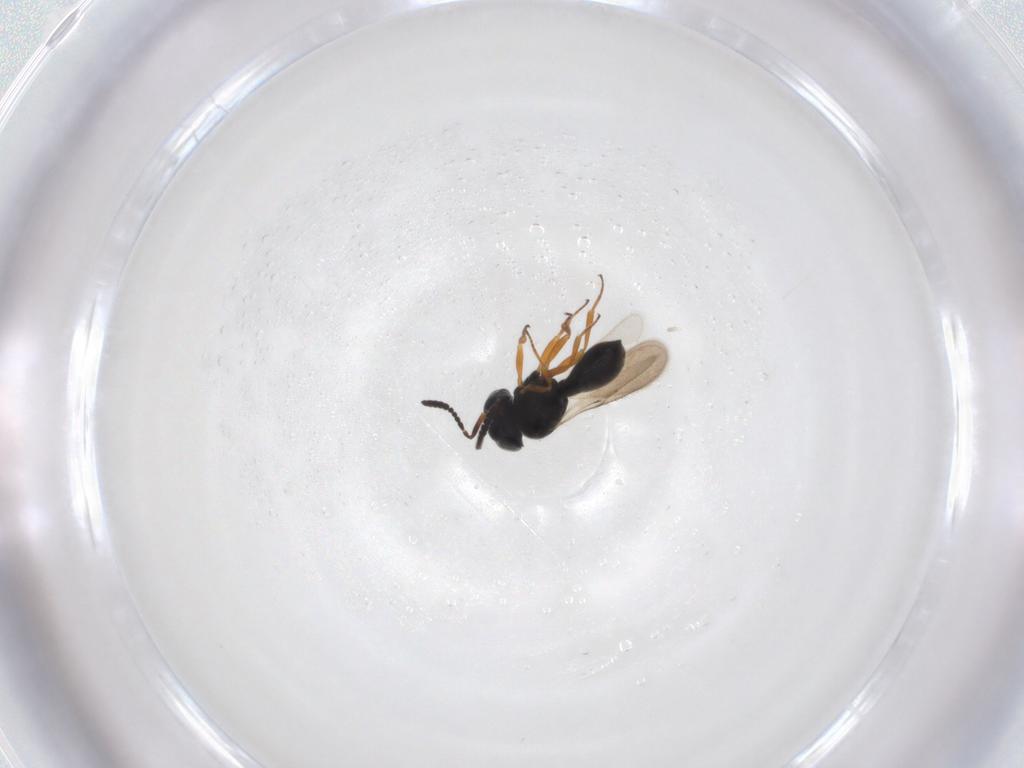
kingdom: Animalia
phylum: Arthropoda
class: Insecta
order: Hymenoptera
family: Scelionidae
